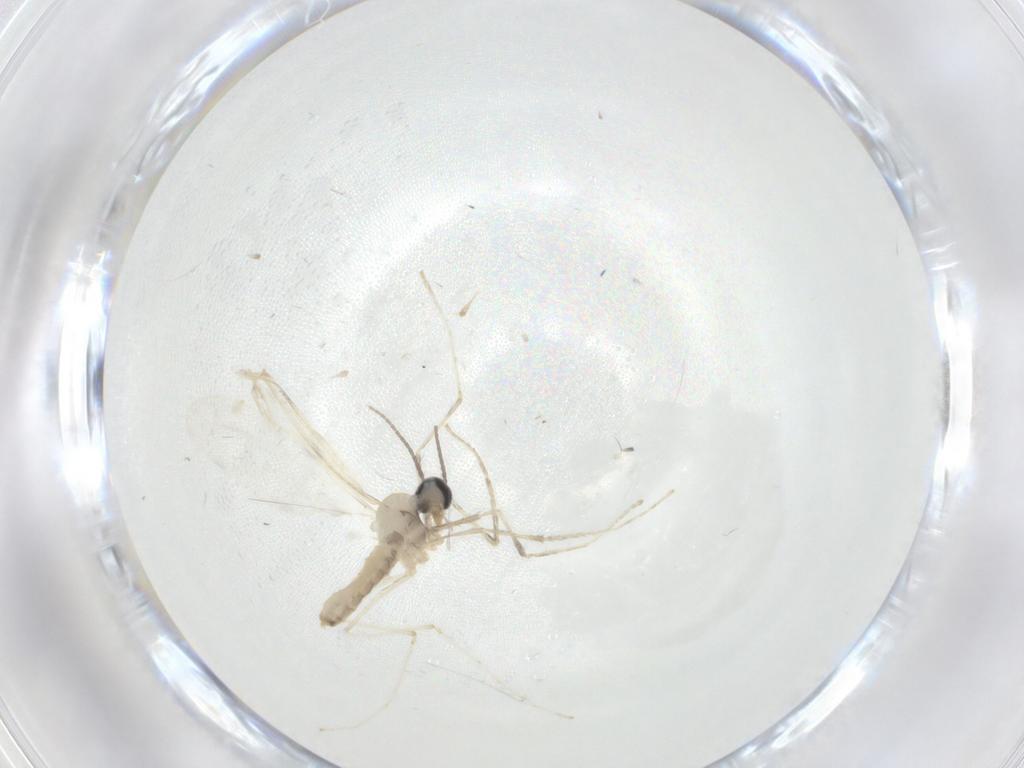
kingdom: Animalia
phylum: Arthropoda
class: Insecta
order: Diptera
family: Cecidomyiidae
